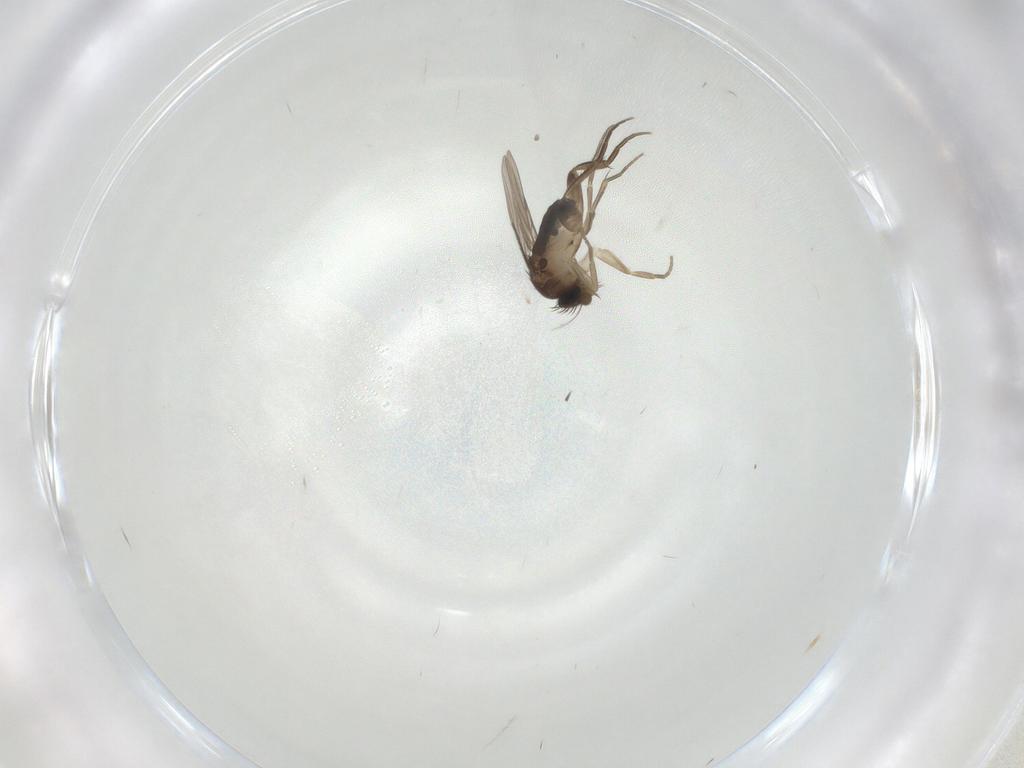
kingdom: Animalia
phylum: Arthropoda
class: Insecta
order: Diptera
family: Phoridae
